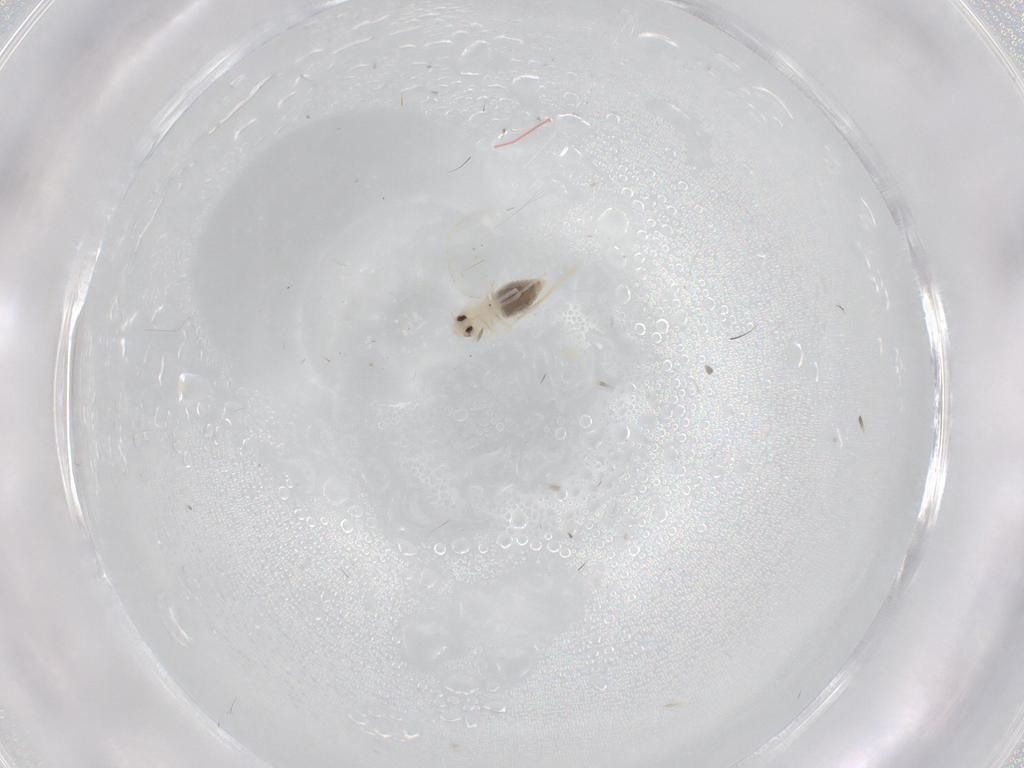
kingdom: Animalia
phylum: Arthropoda
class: Insecta
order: Hemiptera
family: Aleyrodidae
